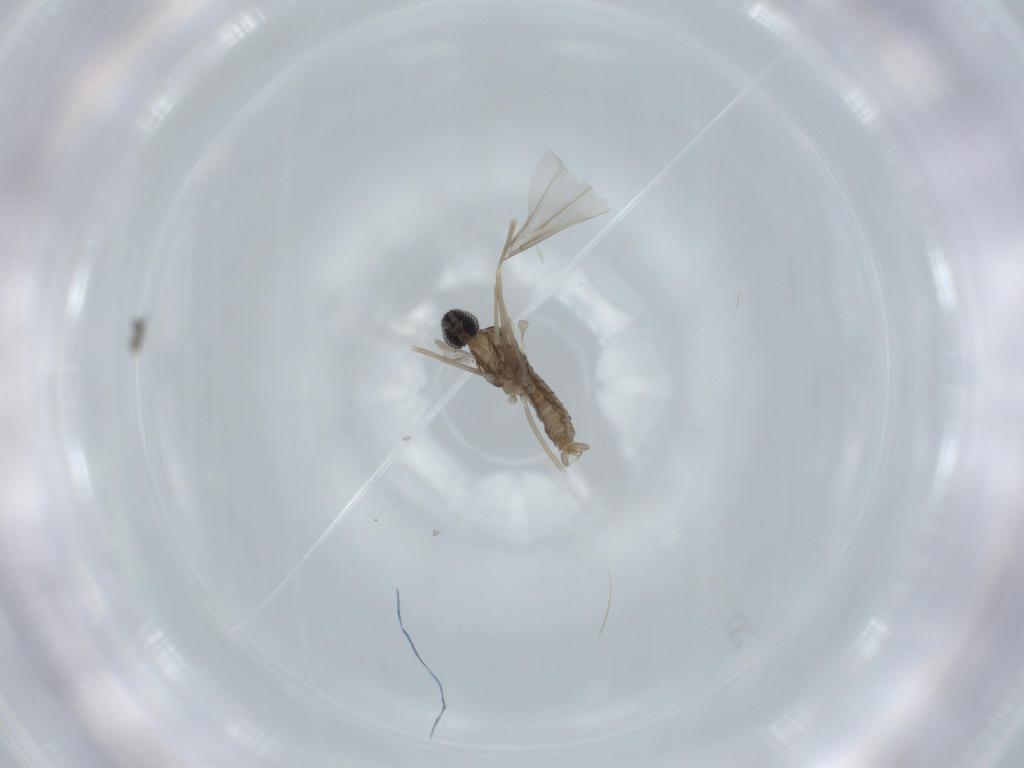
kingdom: Animalia
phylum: Arthropoda
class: Insecta
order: Diptera
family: Cecidomyiidae
